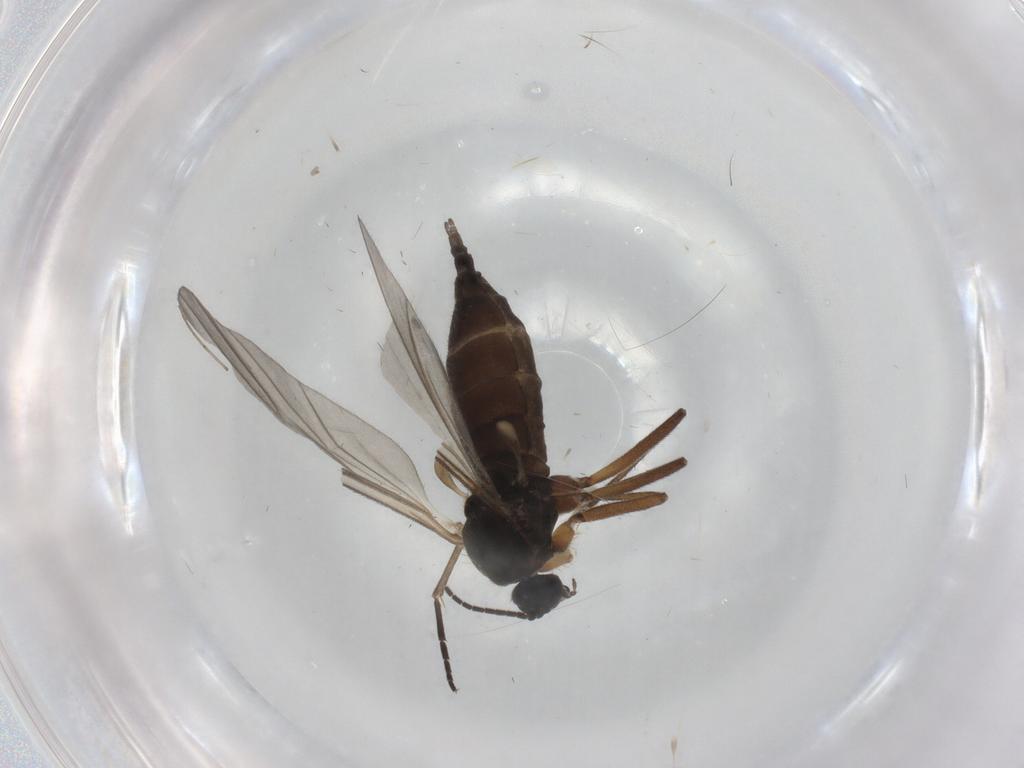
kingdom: Animalia
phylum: Arthropoda
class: Insecta
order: Diptera
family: Sciaridae
